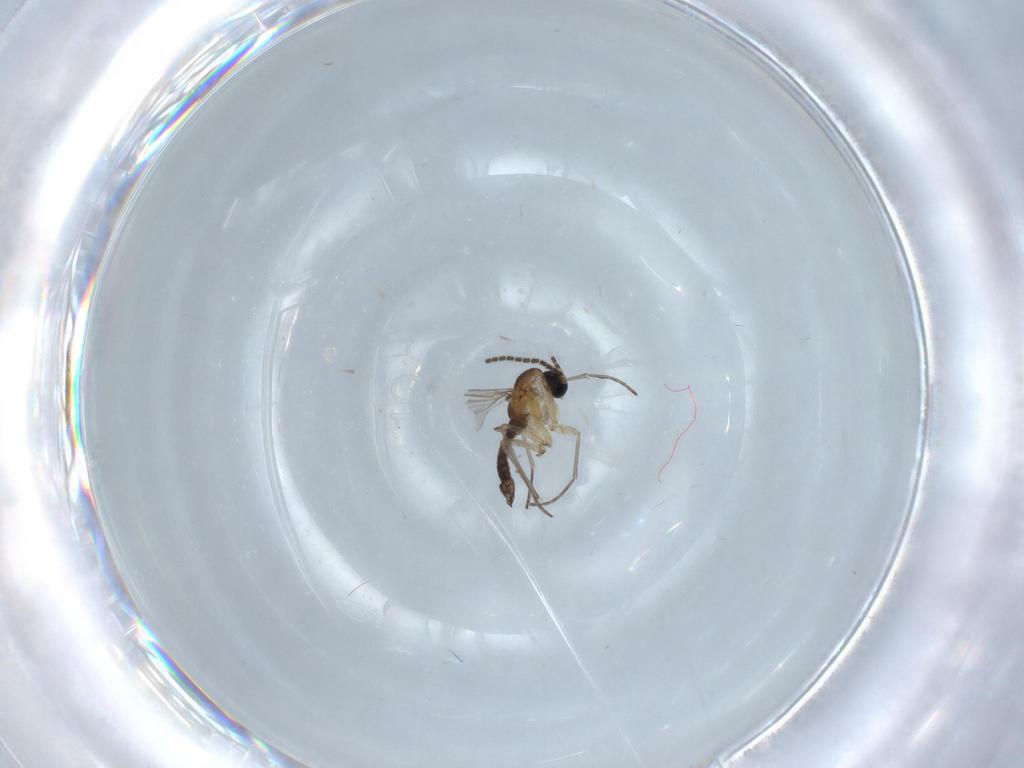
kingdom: Animalia
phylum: Arthropoda
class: Insecta
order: Diptera
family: Sciaridae
